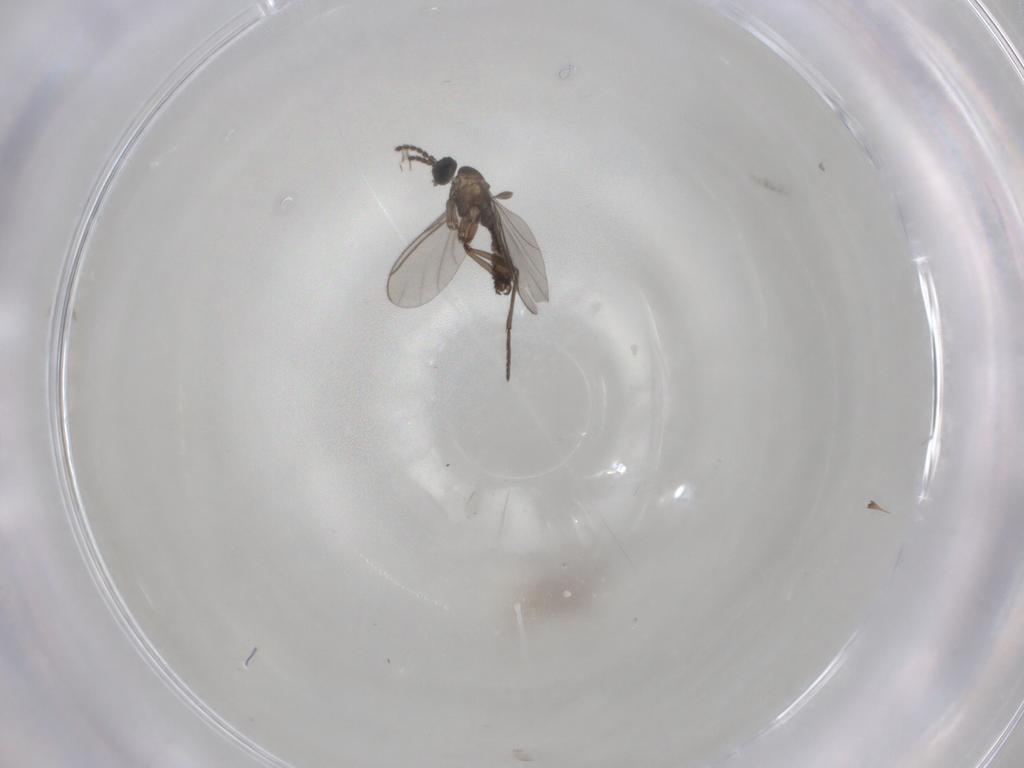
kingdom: Animalia
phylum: Arthropoda
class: Insecta
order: Diptera
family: Sciaridae
